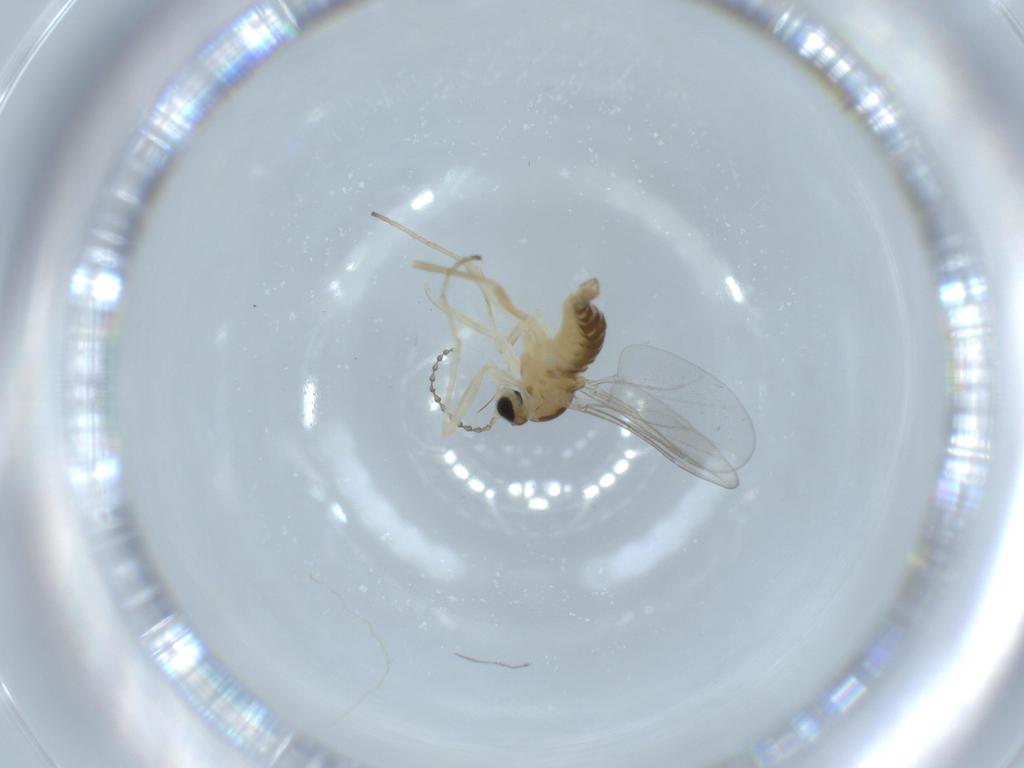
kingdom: Animalia
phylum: Arthropoda
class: Insecta
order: Diptera
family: Cecidomyiidae
